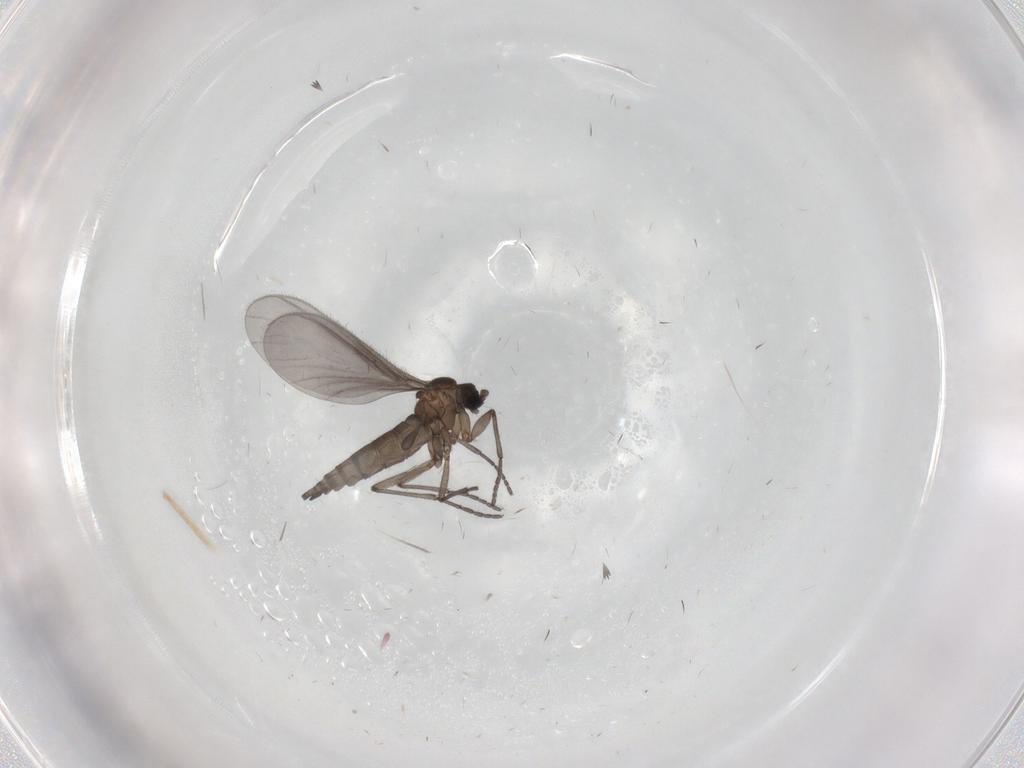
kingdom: Animalia
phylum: Arthropoda
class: Insecta
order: Diptera
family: Sciaridae
